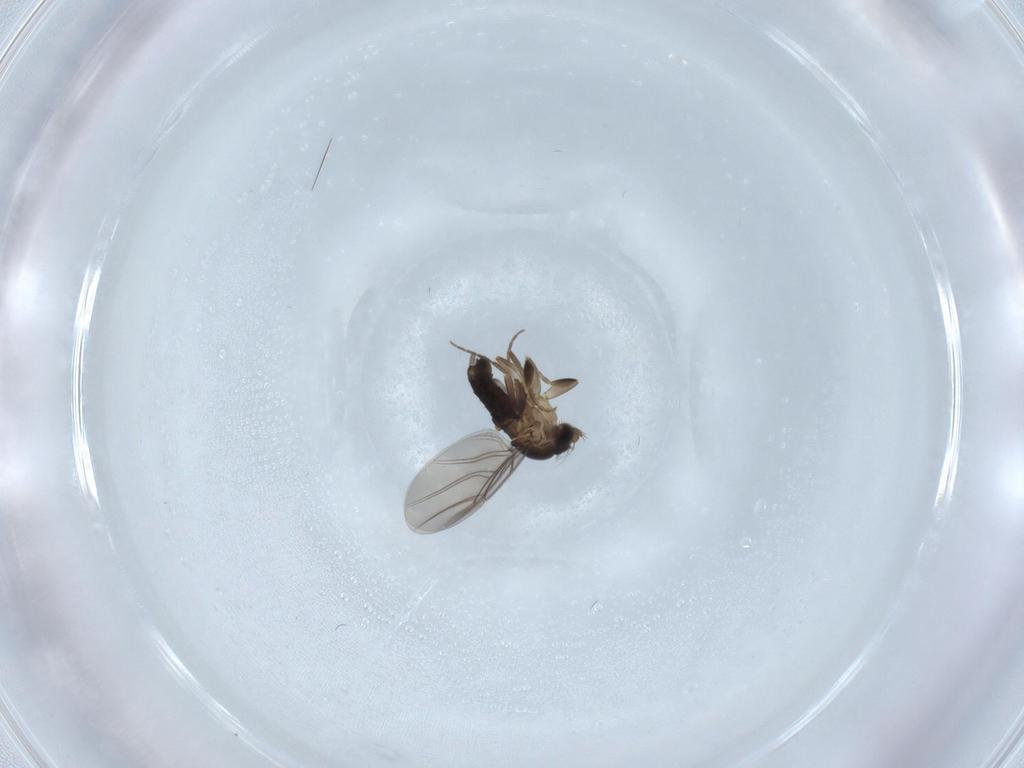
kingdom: Animalia
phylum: Arthropoda
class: Insecta
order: Diptera
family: Phoridae
